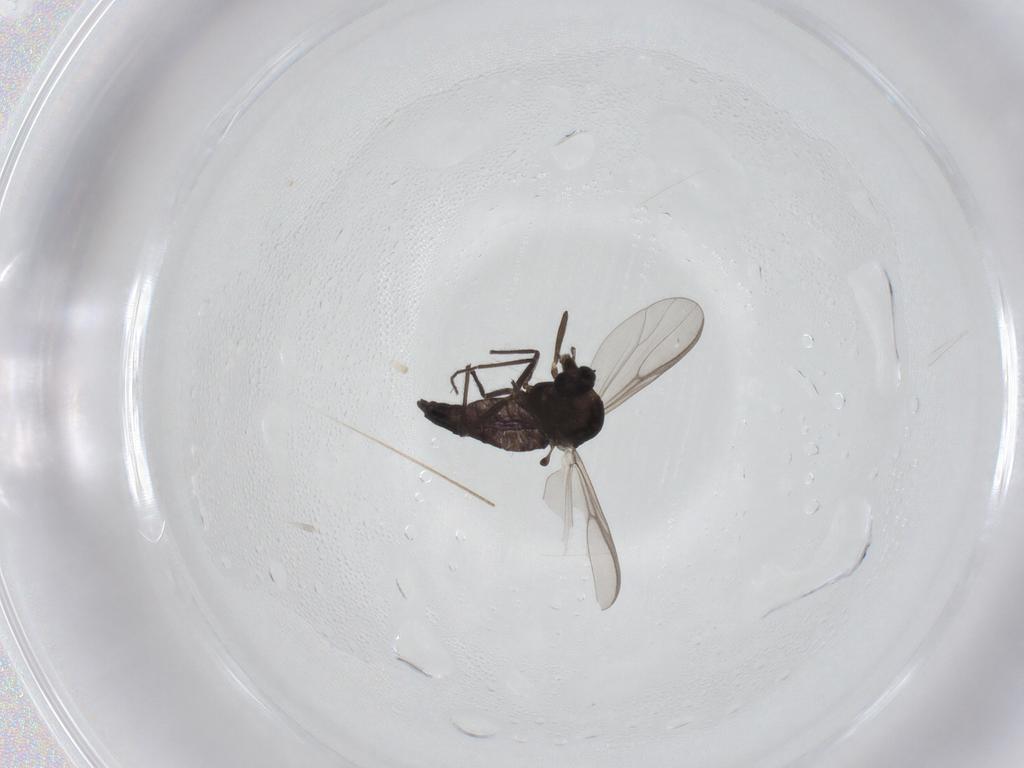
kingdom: Animalia
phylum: Arthropoda
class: Insecta
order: Diptera
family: Chironomidae
